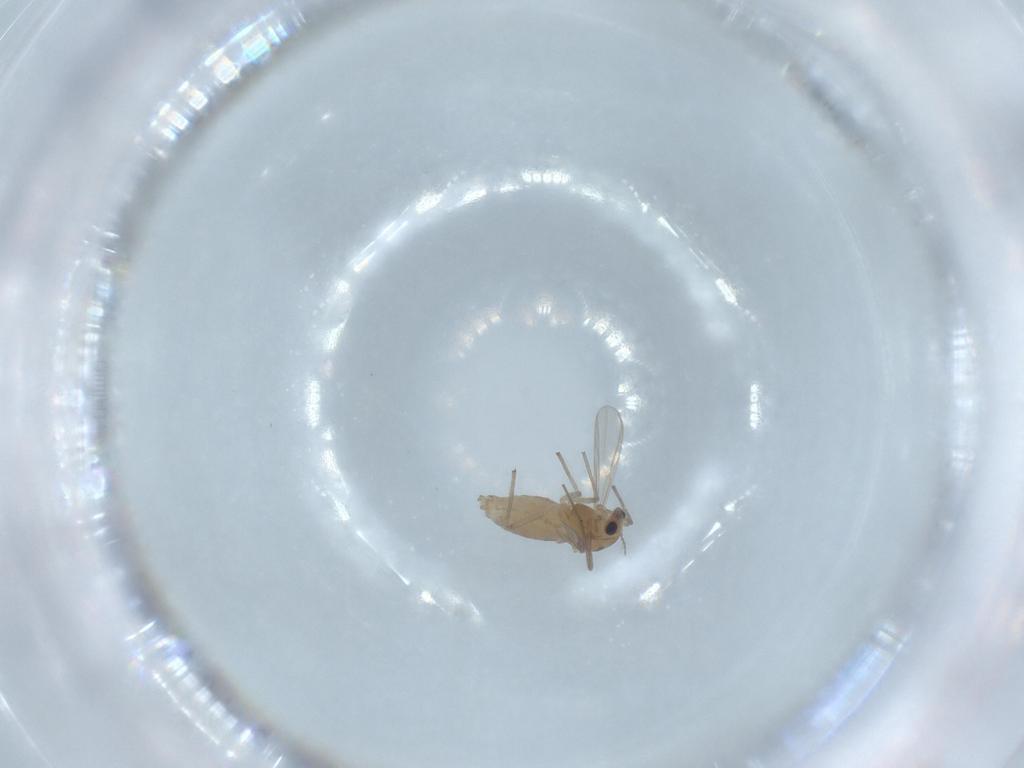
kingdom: Animalia
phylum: Arthropoda
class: Insecta
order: Diptera
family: Chironomidae
